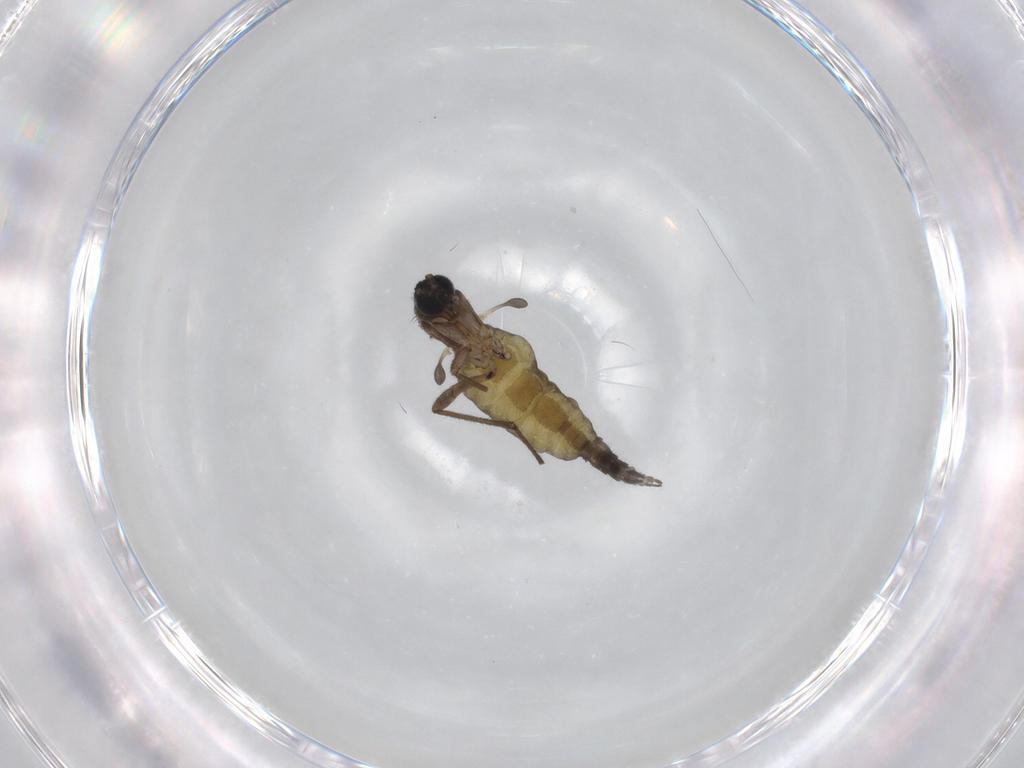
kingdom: Animalia
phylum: Arthropoda
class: Insecta
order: Diptera
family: Sciaridae
